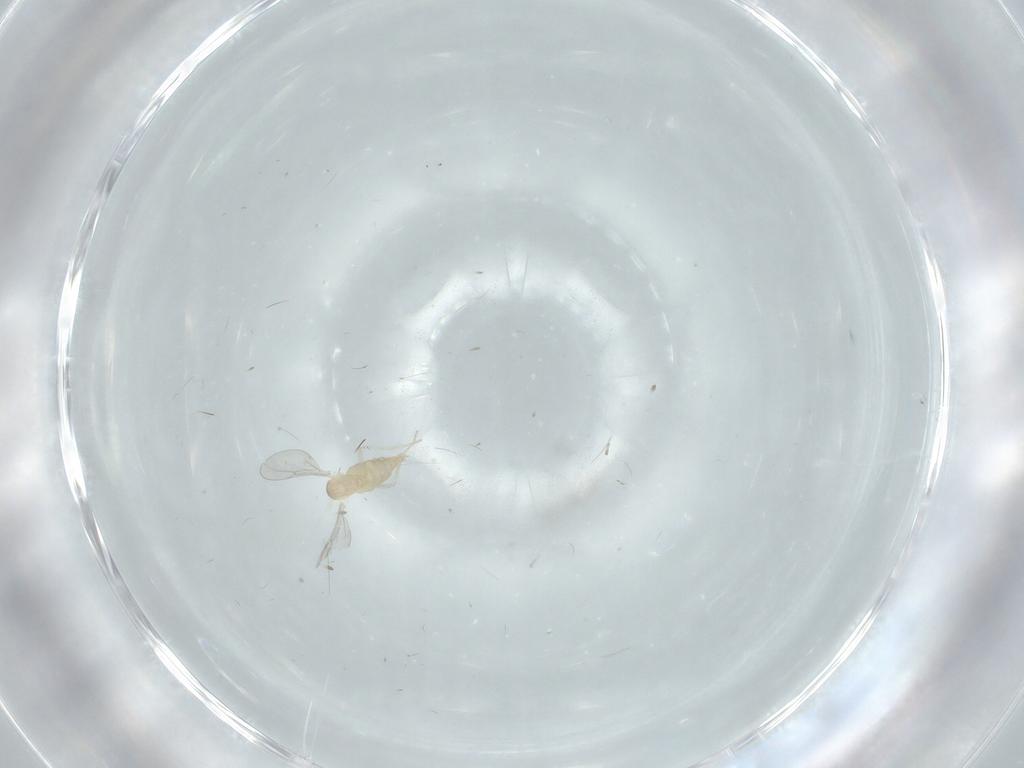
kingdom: Animalia
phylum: Arthropoda
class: Insecta
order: Diptera
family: Cecidomyiidae
